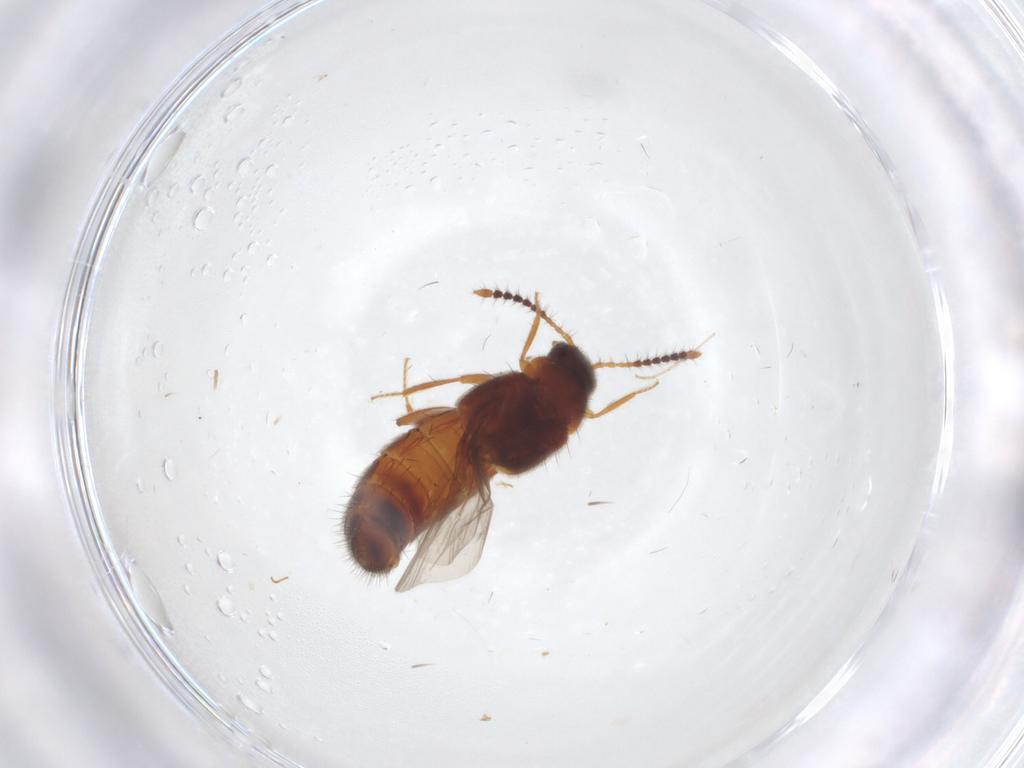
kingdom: Animalia
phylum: Arthropoda
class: Insecta
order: Coleoptera
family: Staphylinidae
